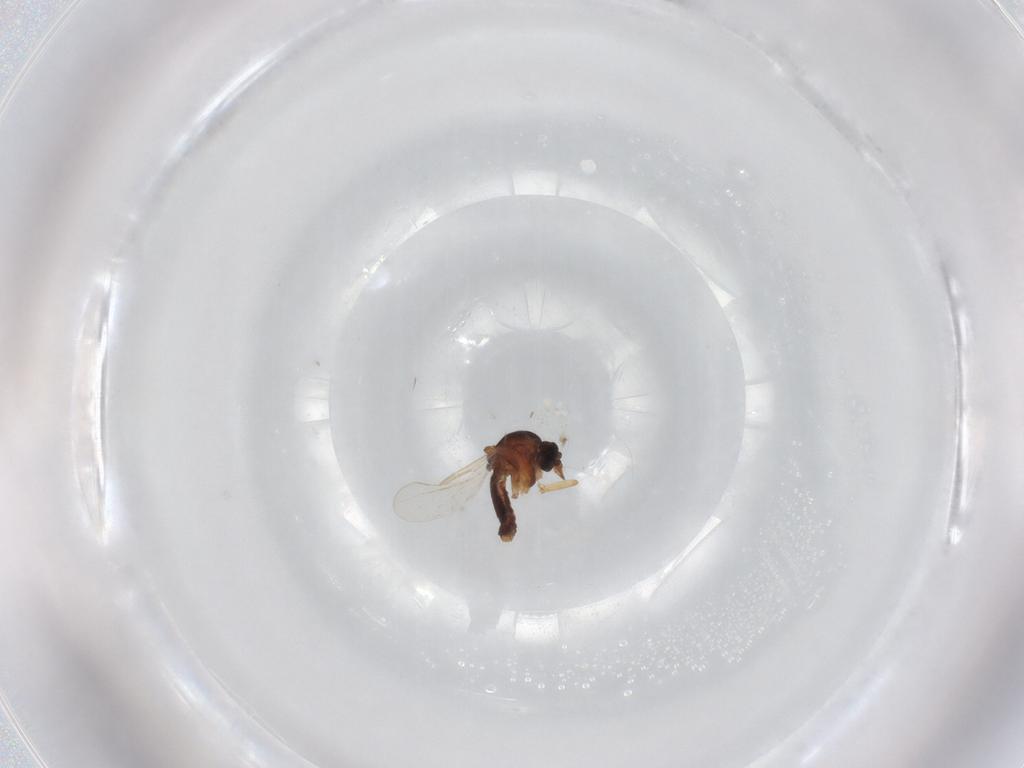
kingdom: Animalia
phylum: Arthropoda
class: Insecta
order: Diptera
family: Ceratopogonidae
